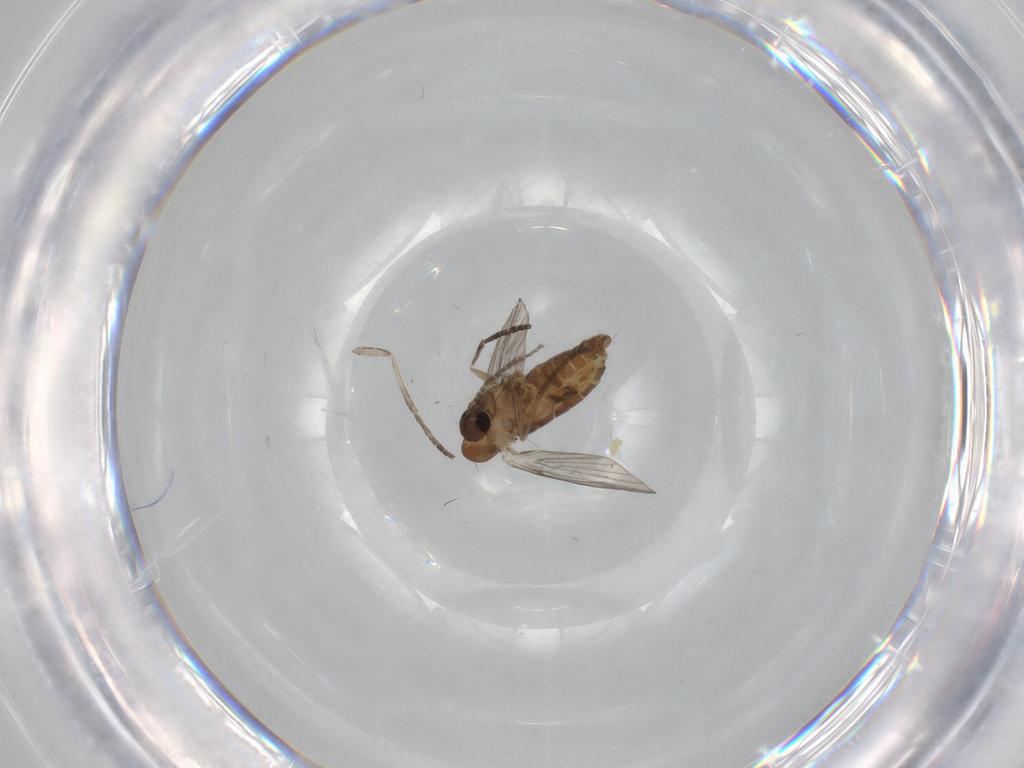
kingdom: Animalia
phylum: Arthropoda
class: Insecta
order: Diptera
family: Psychodidae
